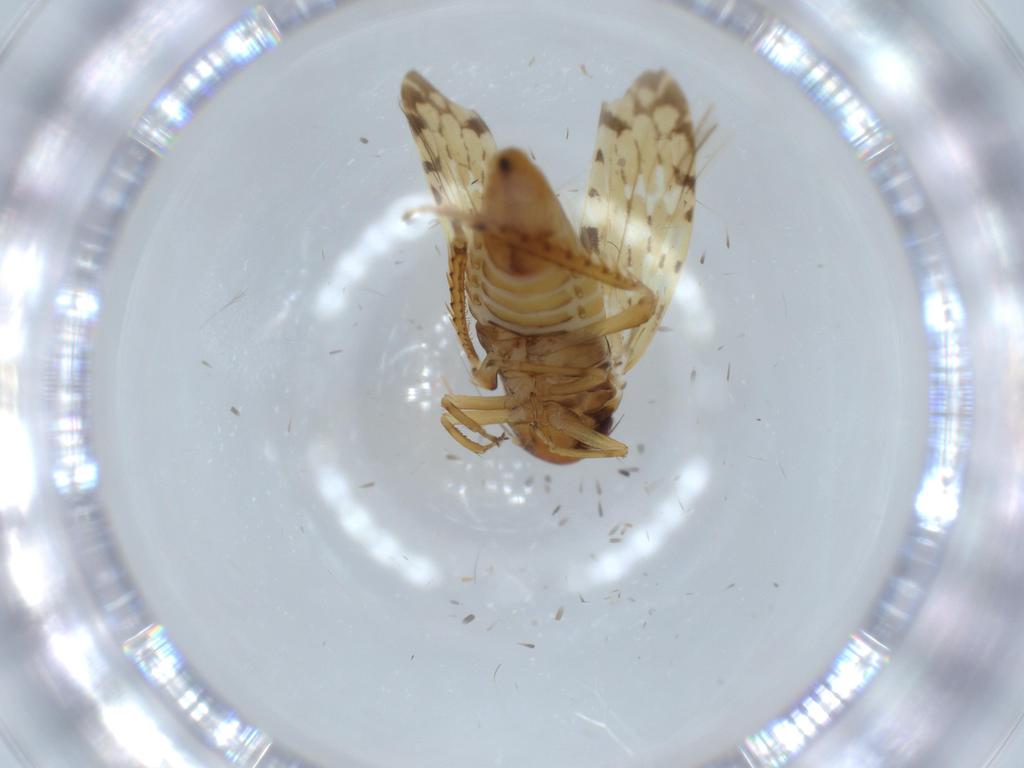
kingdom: Animalia
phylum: Arthropoda
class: Insecta
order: Hemiptera
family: Cicadellidae
